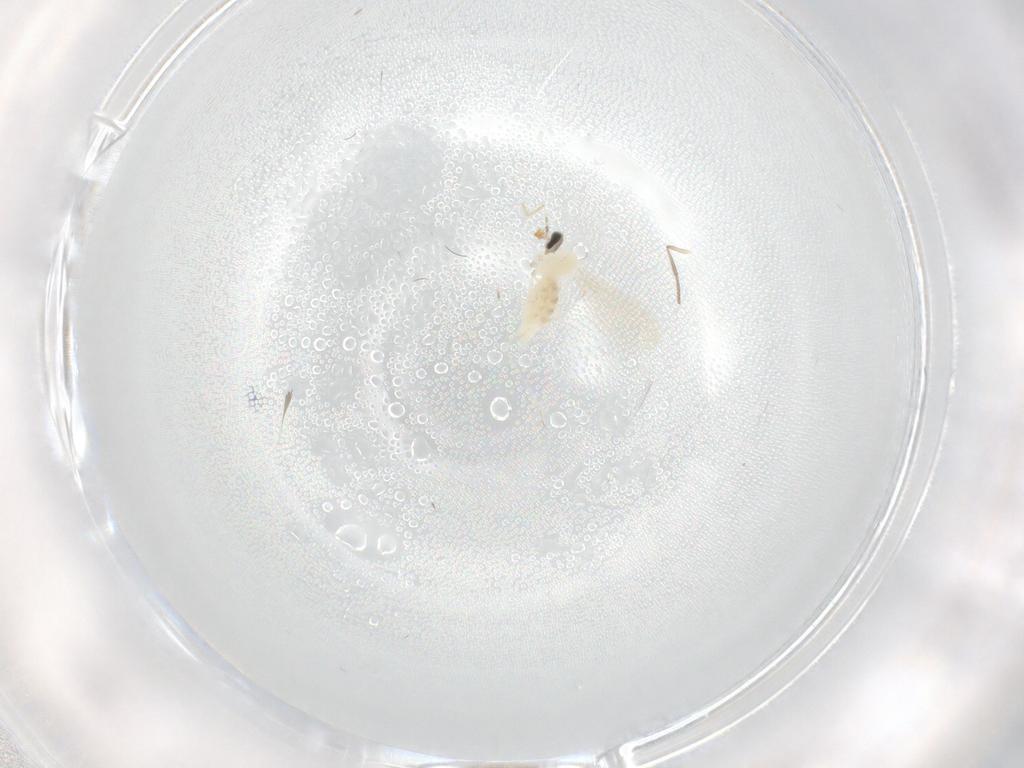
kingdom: Animalia
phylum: Arthropoda
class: Insecta
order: Diptera
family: Cecidomyiidae
